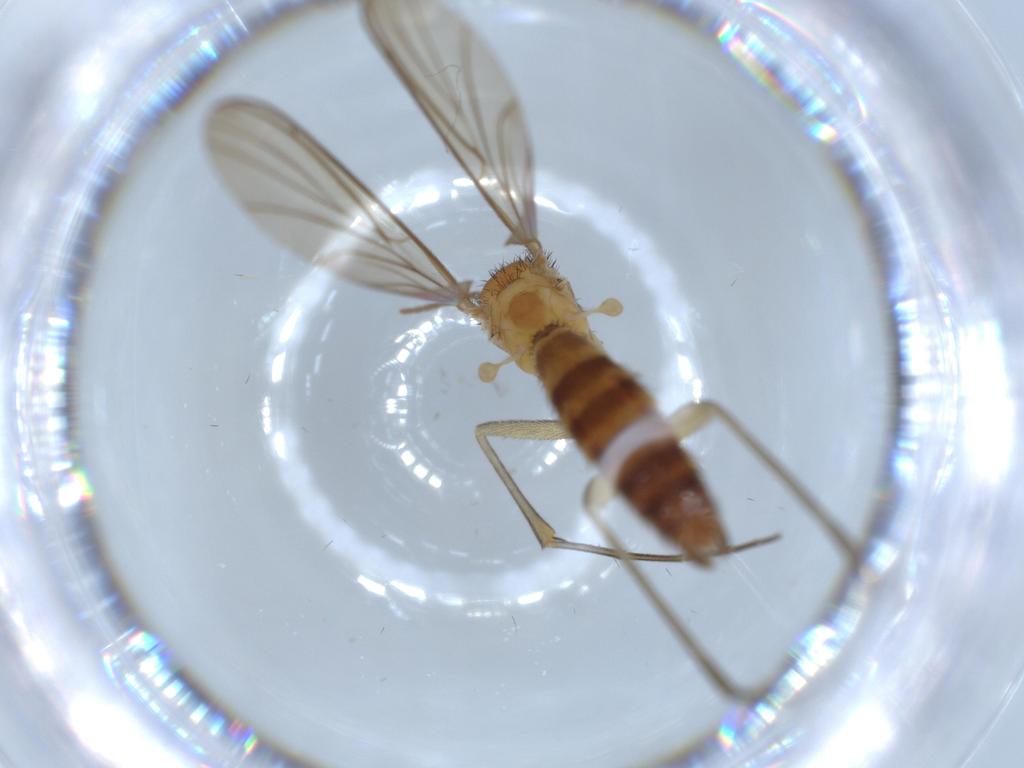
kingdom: Animalia
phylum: Arthropoda
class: Insecta
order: Diptera
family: Keroplatidae
